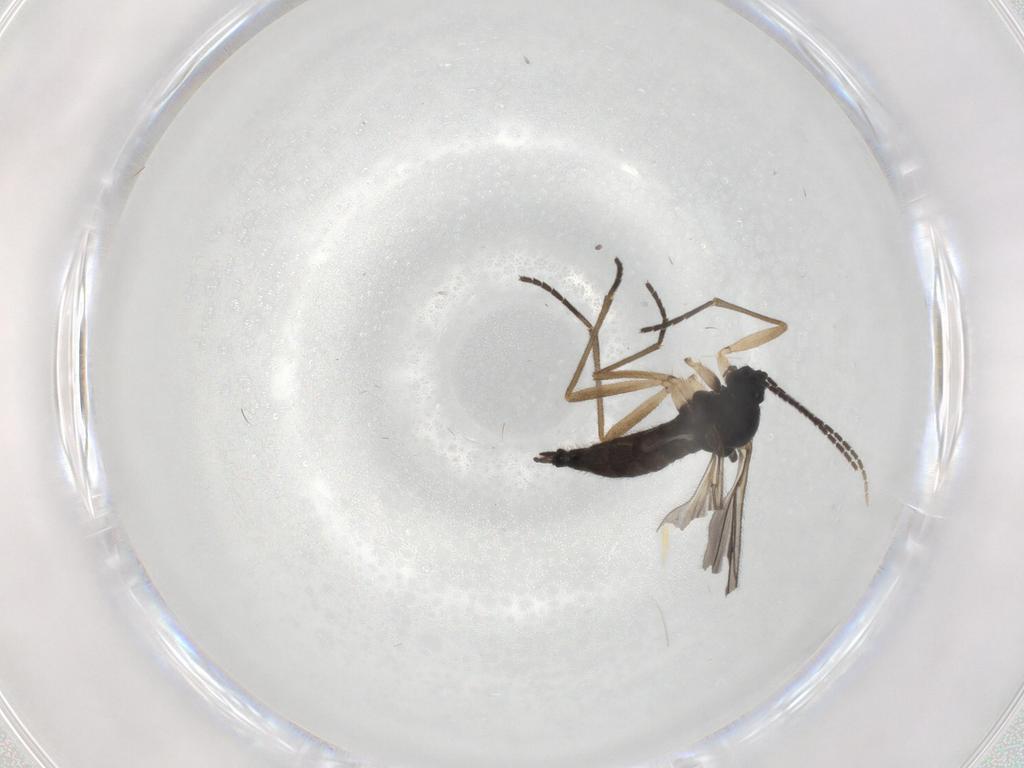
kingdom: Animalia
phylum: Arthropoda
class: Insecta
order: Diptera
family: Sciaridae
